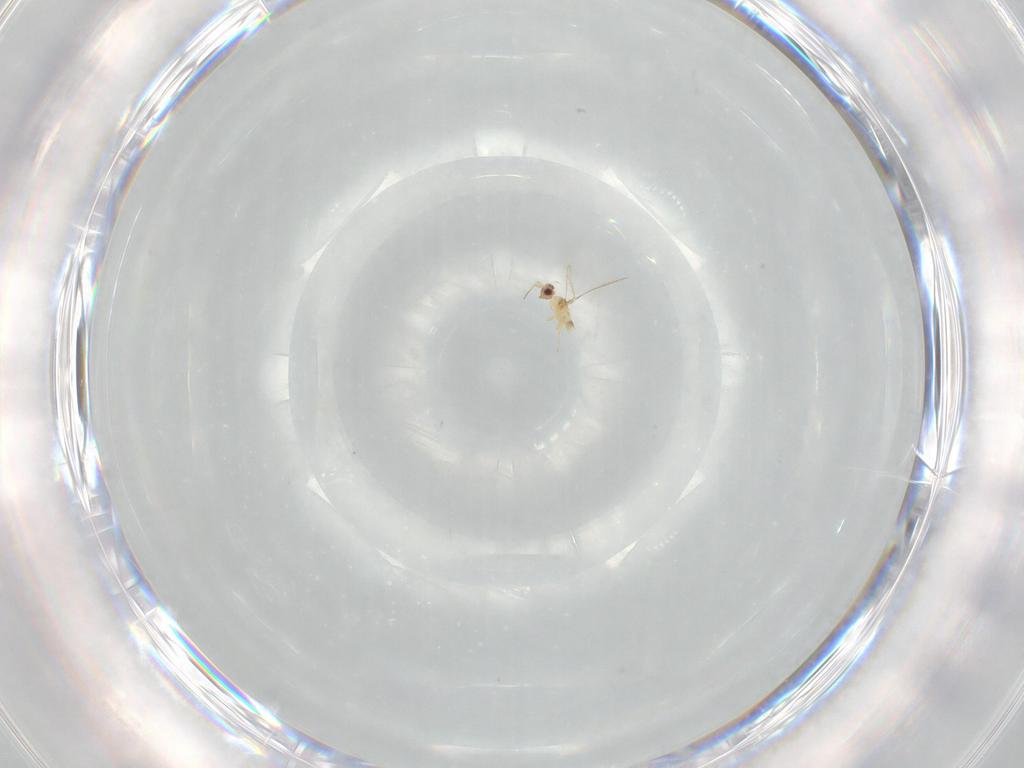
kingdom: Animalia
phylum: Arthropoda
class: Insecta
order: Hymenoptera
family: Mymaridae
